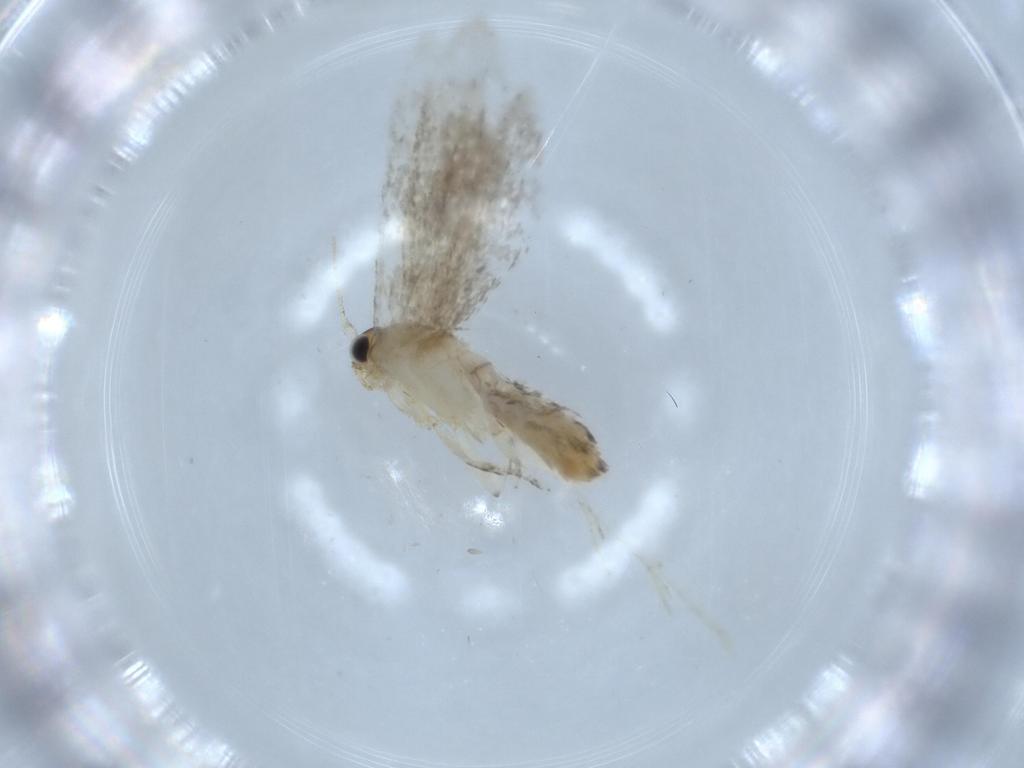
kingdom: Animalia
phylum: Arthropoda
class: Insecta
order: Lepidoptera
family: Tineidae
